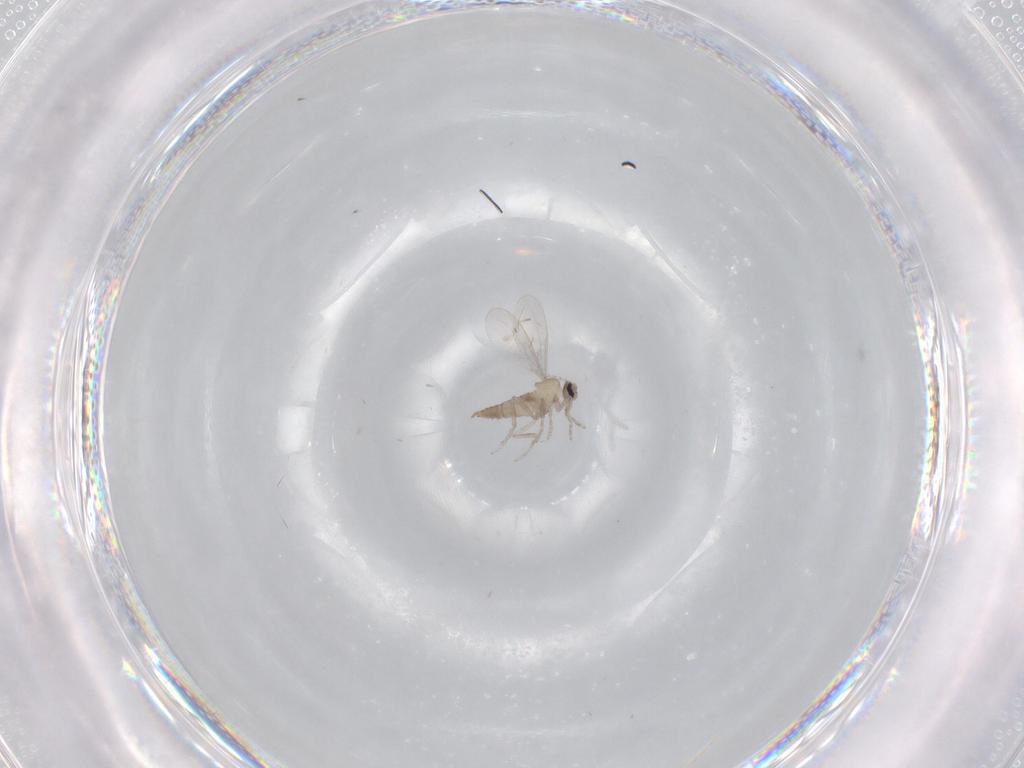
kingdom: Animalia
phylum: Arthropoda
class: Insecta
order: Diptera
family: Cecidomyiidae
